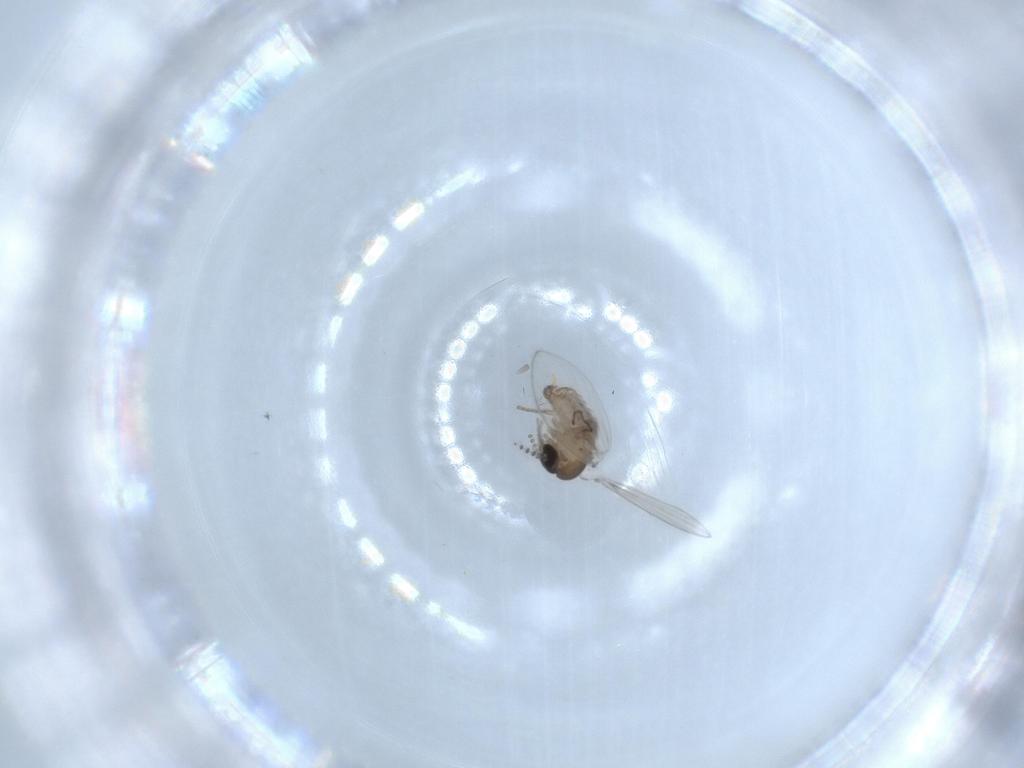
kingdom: Animalia
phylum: Arthropoda
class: Insecta
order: Diptera
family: Psychodidae
